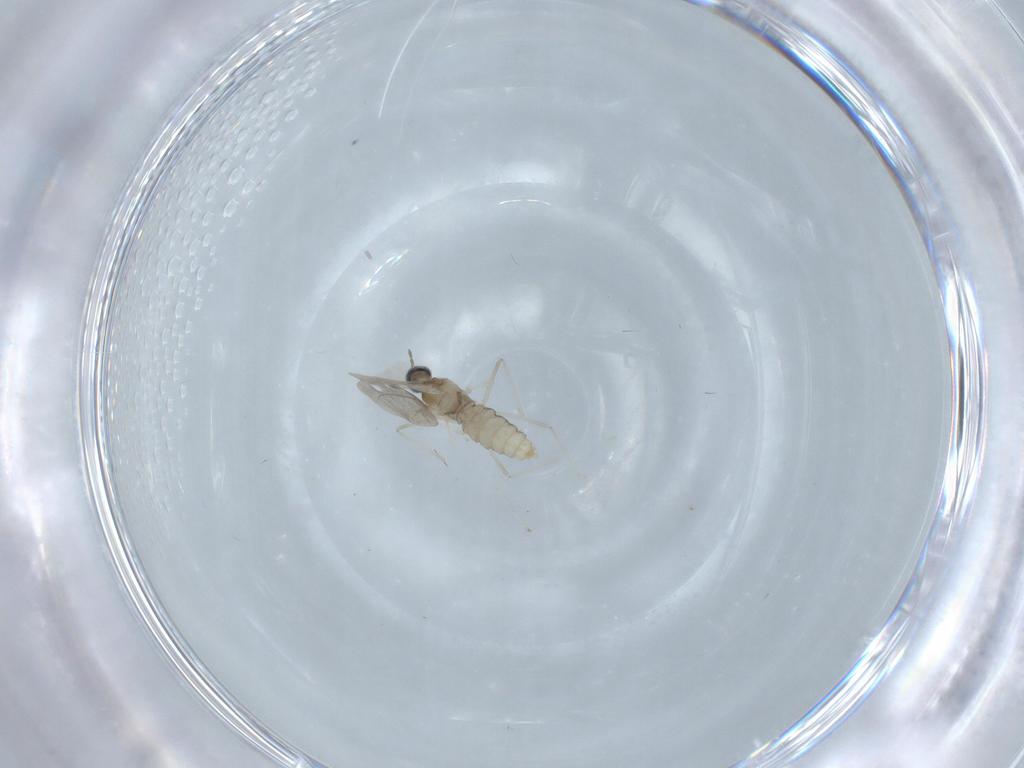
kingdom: Animalia
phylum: Arthropoda
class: Insecta
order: Diptera
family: Cecidomyiidae
